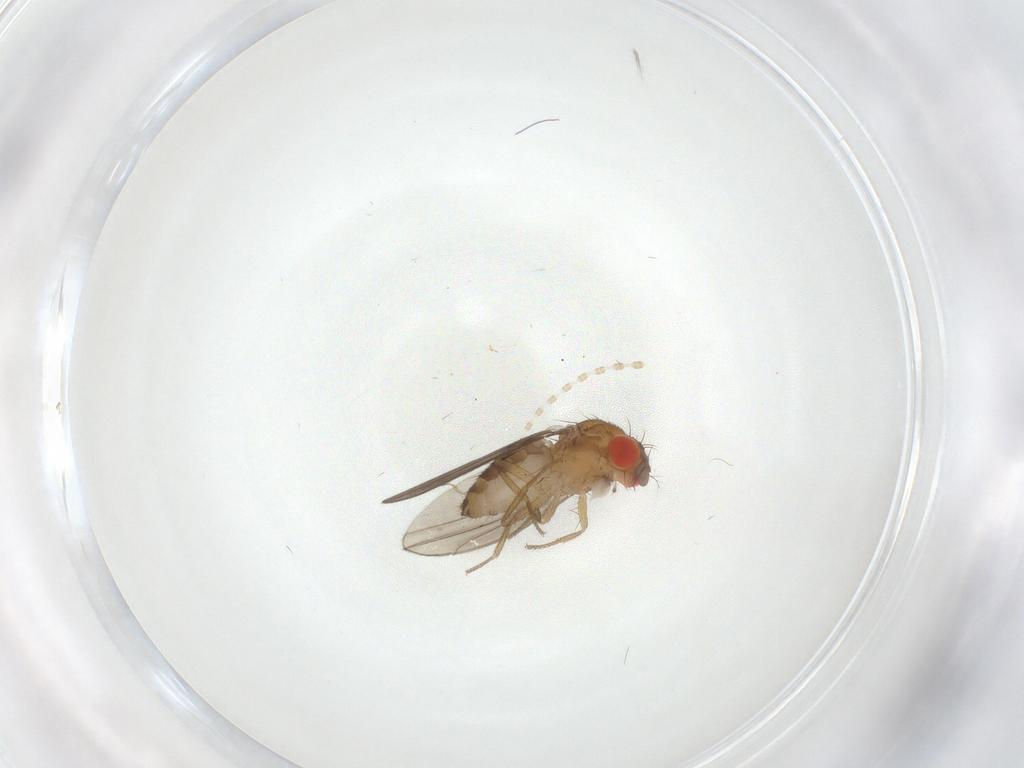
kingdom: Animalia
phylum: Arthropoda
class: Insecta
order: Diptera
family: Drosophilidae
